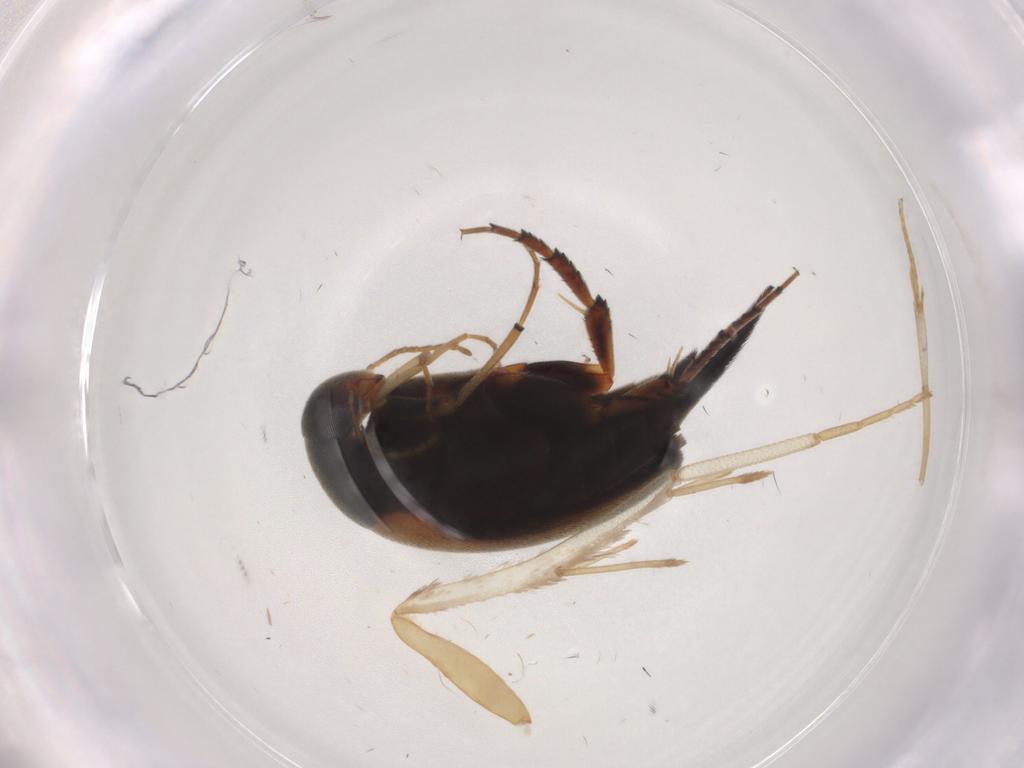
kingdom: Animalia
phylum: Arthropoda
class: Insecta
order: Coleoptera
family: Mordellidae
